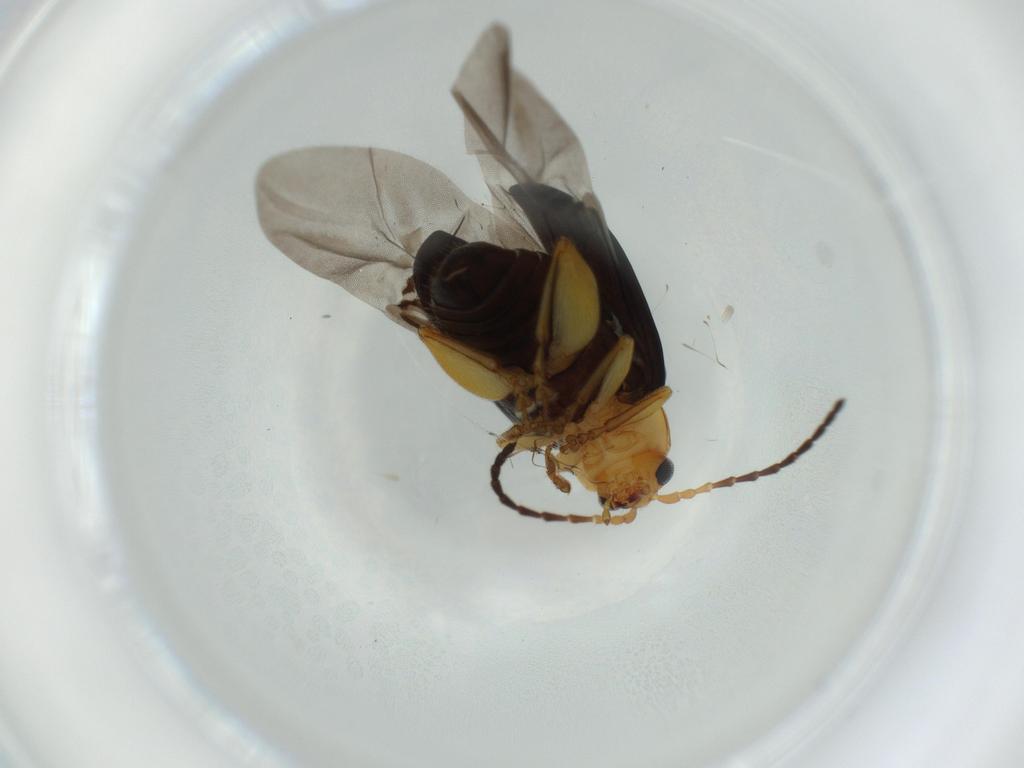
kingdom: Animalia
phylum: Arthropoda
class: Insecta
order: Coleoptera
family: Chrysomelidae
